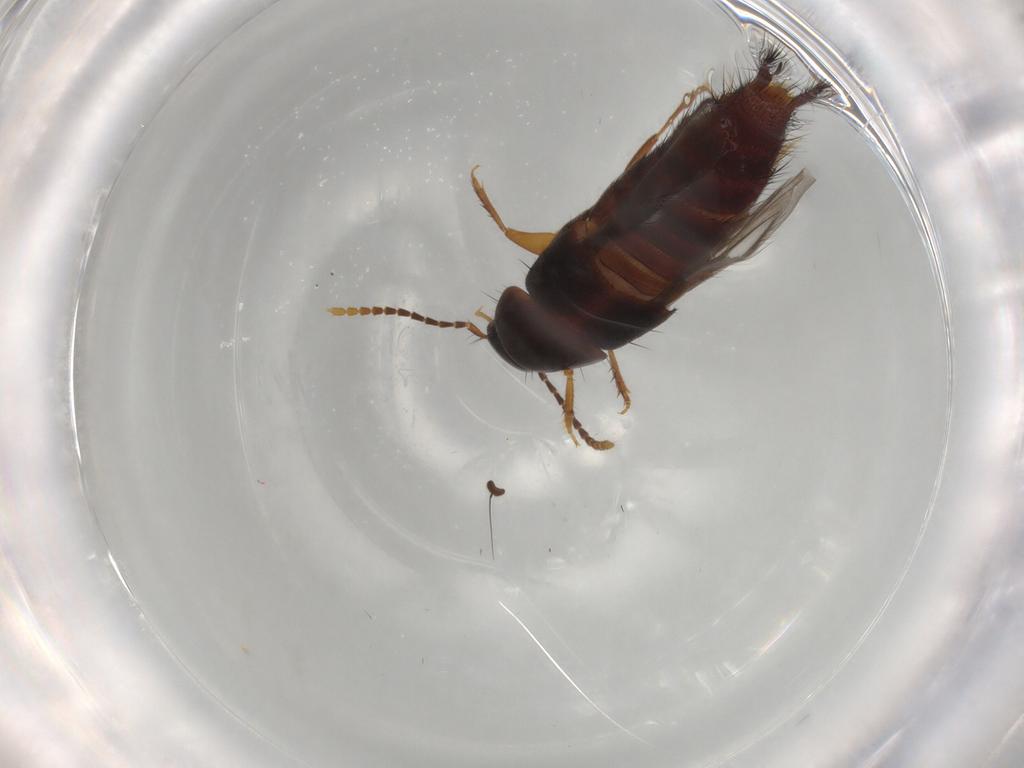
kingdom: Animalia
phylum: Arthropoda
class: Insecta
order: Coleoptera
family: Staphylinidae
